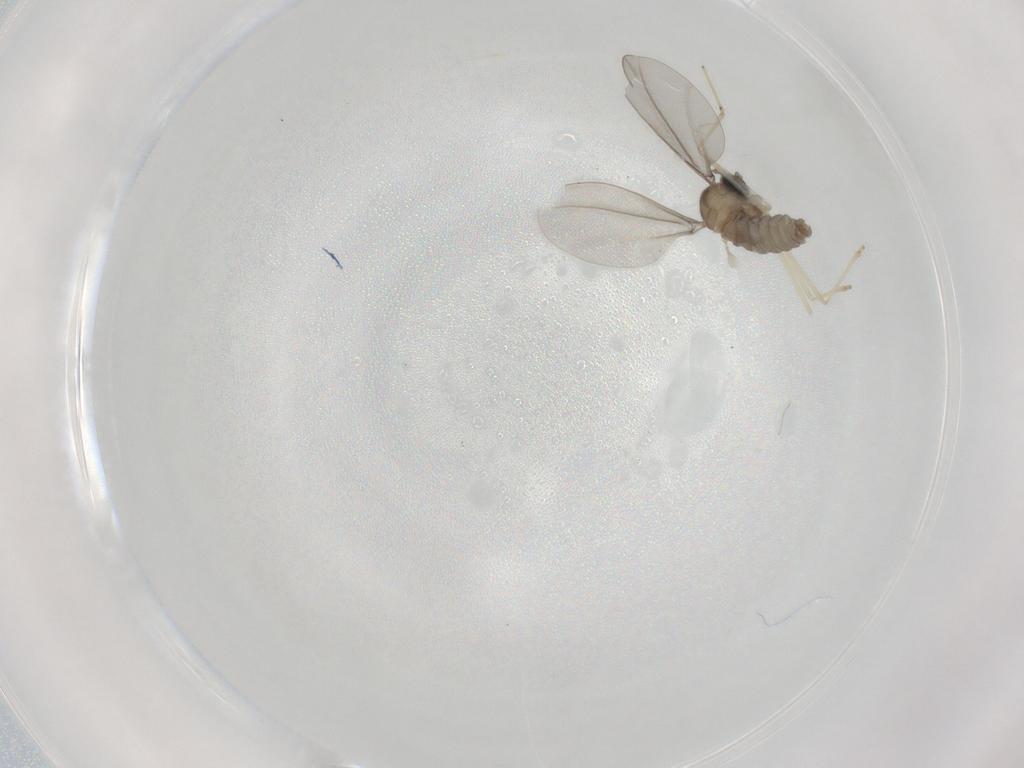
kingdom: Animalia
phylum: Arthropoda
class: Insecta
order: Diptera
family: Cecidomyiidae
